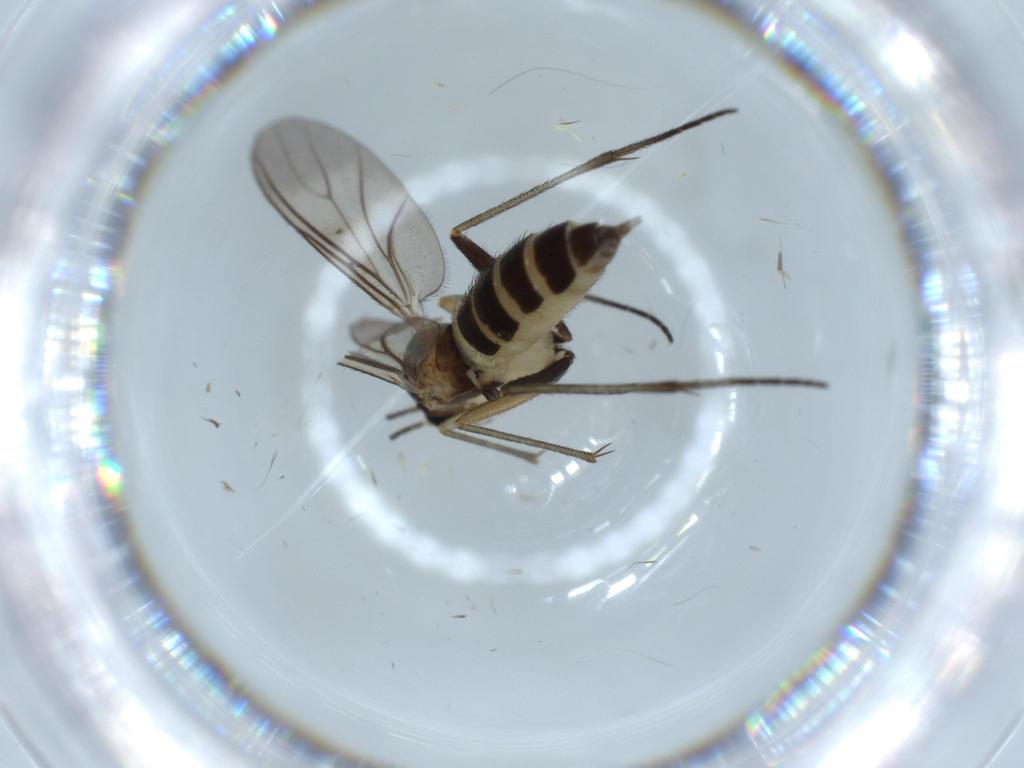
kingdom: Animalia
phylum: Arthropoda
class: Insecta
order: Diptera
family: Sciaridae
